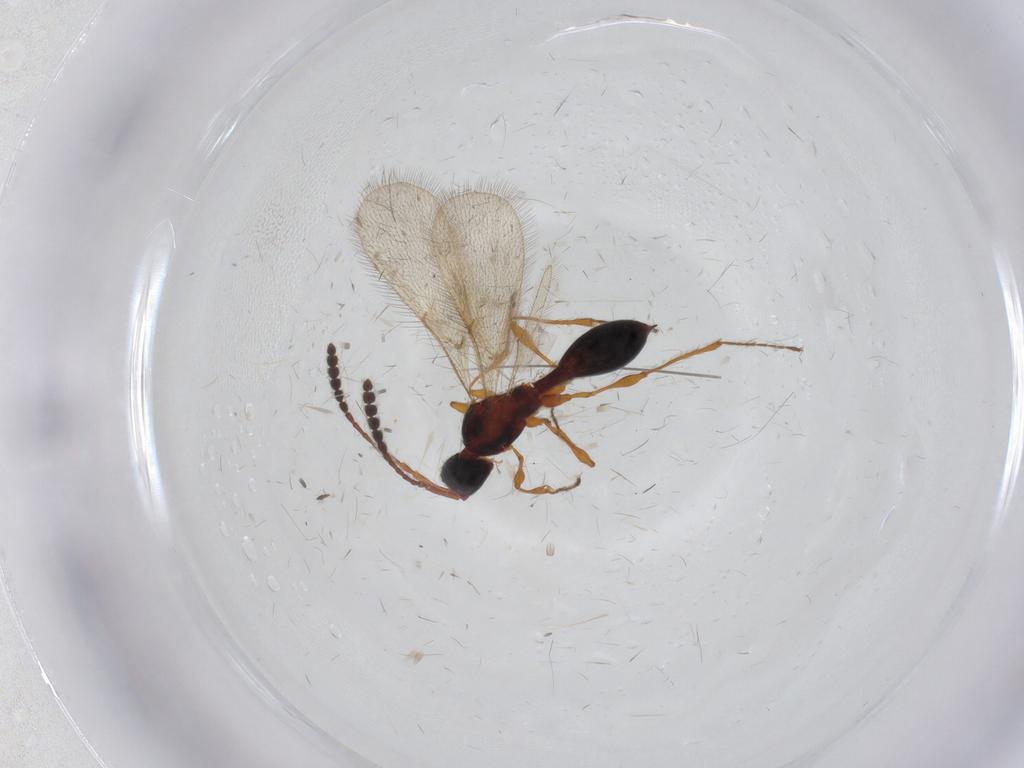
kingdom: Animalia
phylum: Arthropoda
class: Insecta
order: Hymenoptera
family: Diapriidae
